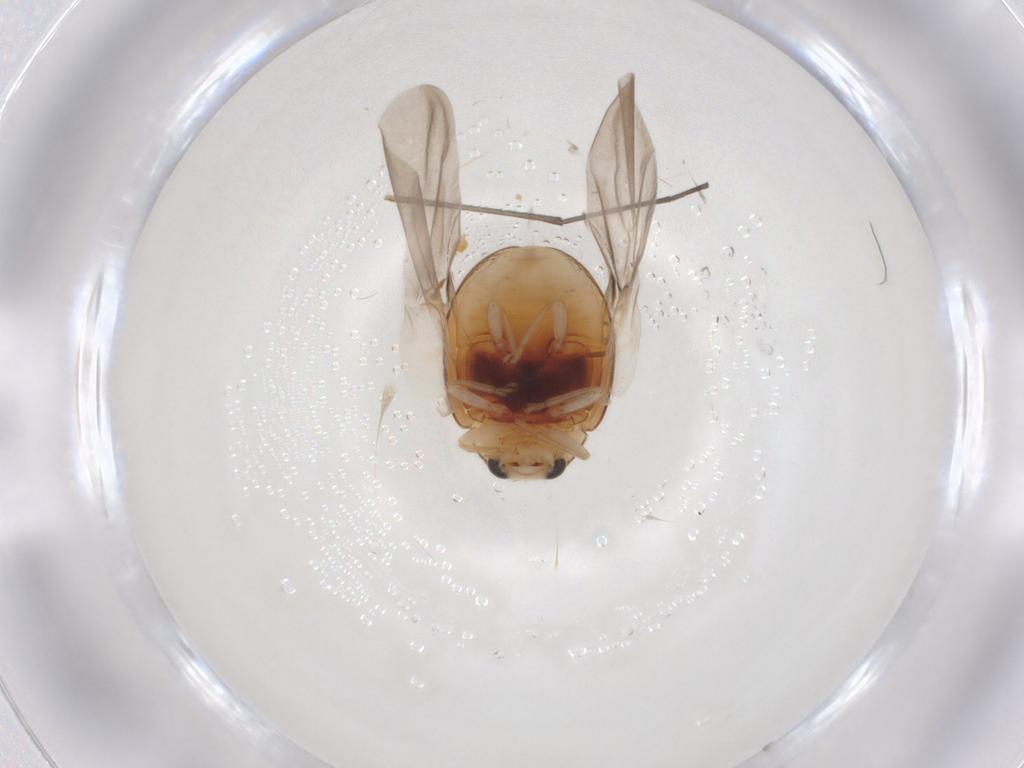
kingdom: Animalia
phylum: Arthropoda
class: Insecta
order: Coleoptera
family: Coccinellidae
